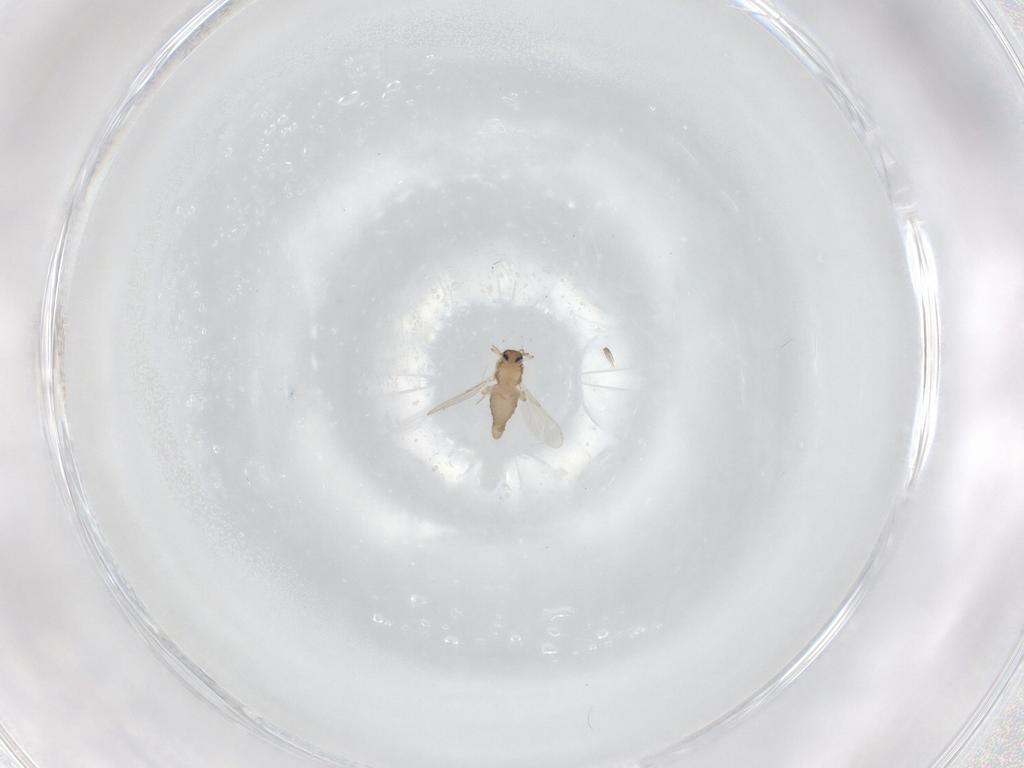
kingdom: Animalia
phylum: Arthropoda
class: Insecta
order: Diptera
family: Ceratopogonidae
